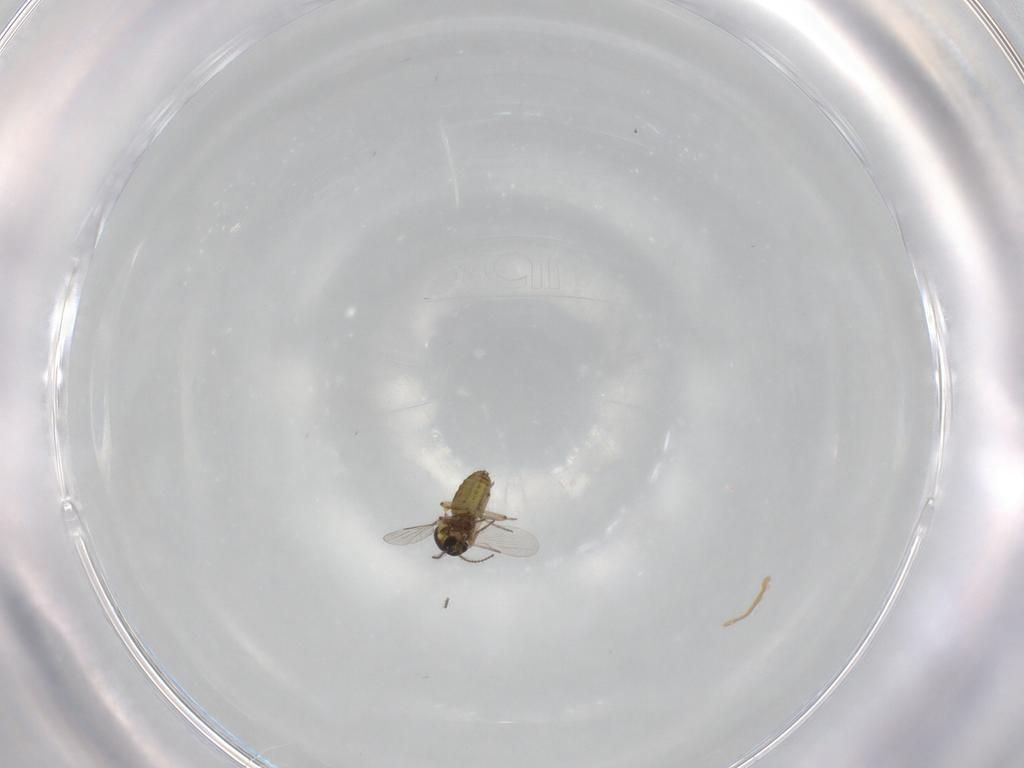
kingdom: Animalia
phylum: Arthropoda
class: Insecta
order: Diptera
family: Ceratopogonidae
